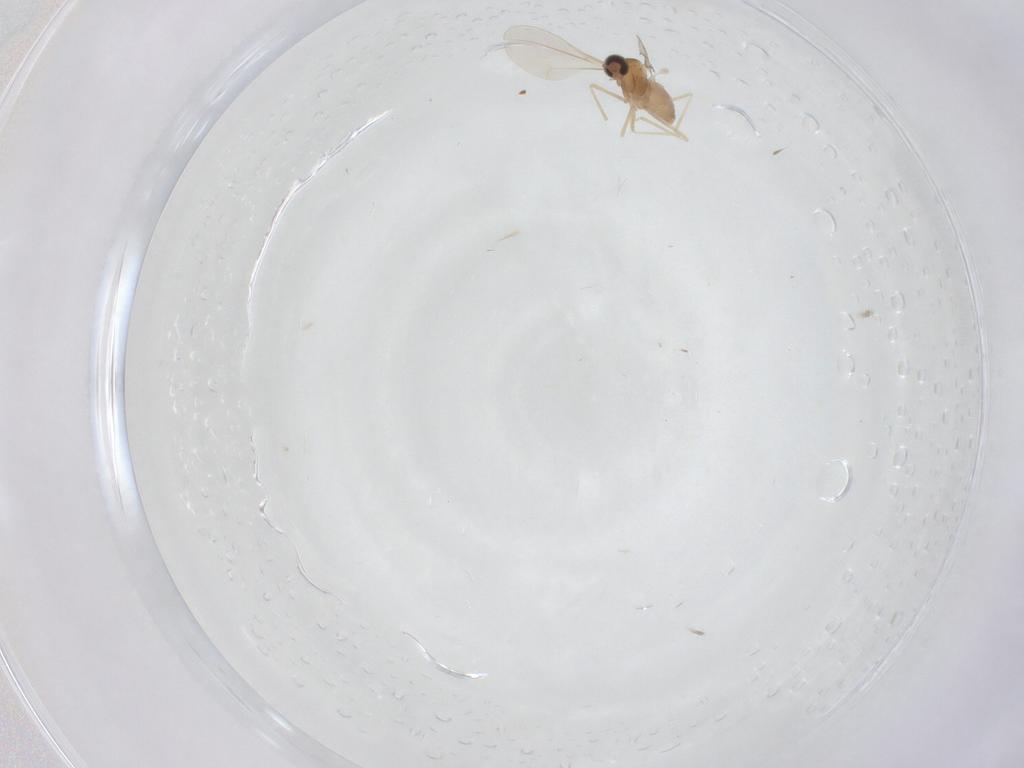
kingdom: Animalia
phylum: Arthropoda
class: Insecta
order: Diptera
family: Cecidomyiidae
